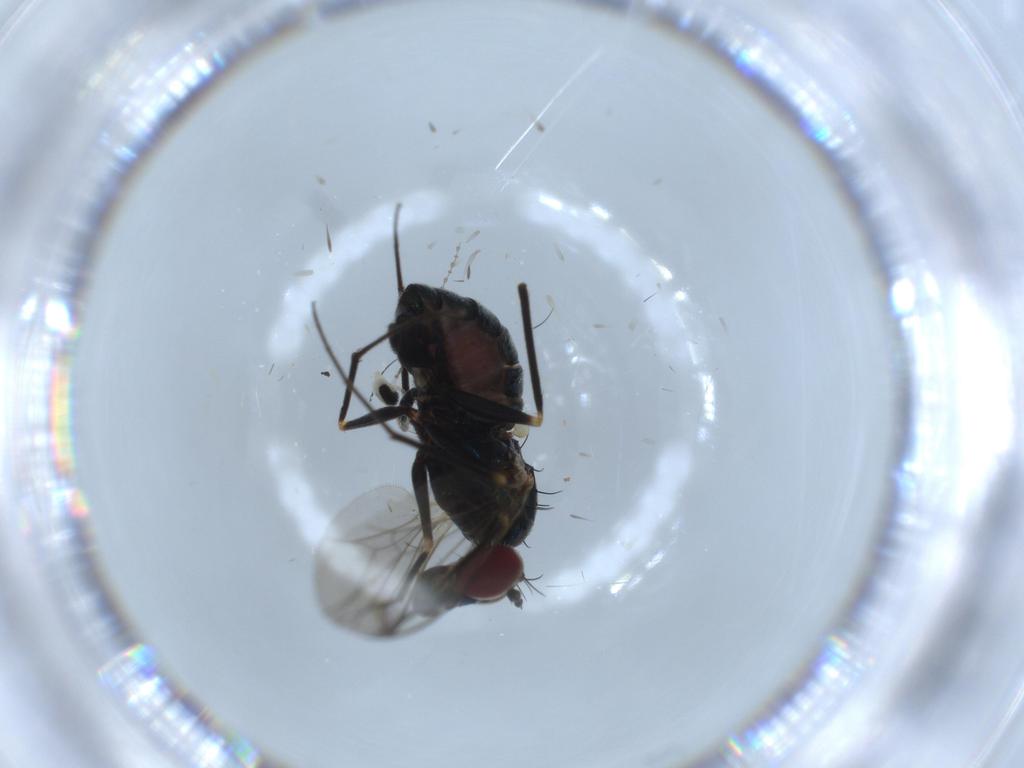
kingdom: Animalia
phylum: Arthropoda
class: Insecta
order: Diptera
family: Dolichopodidae
